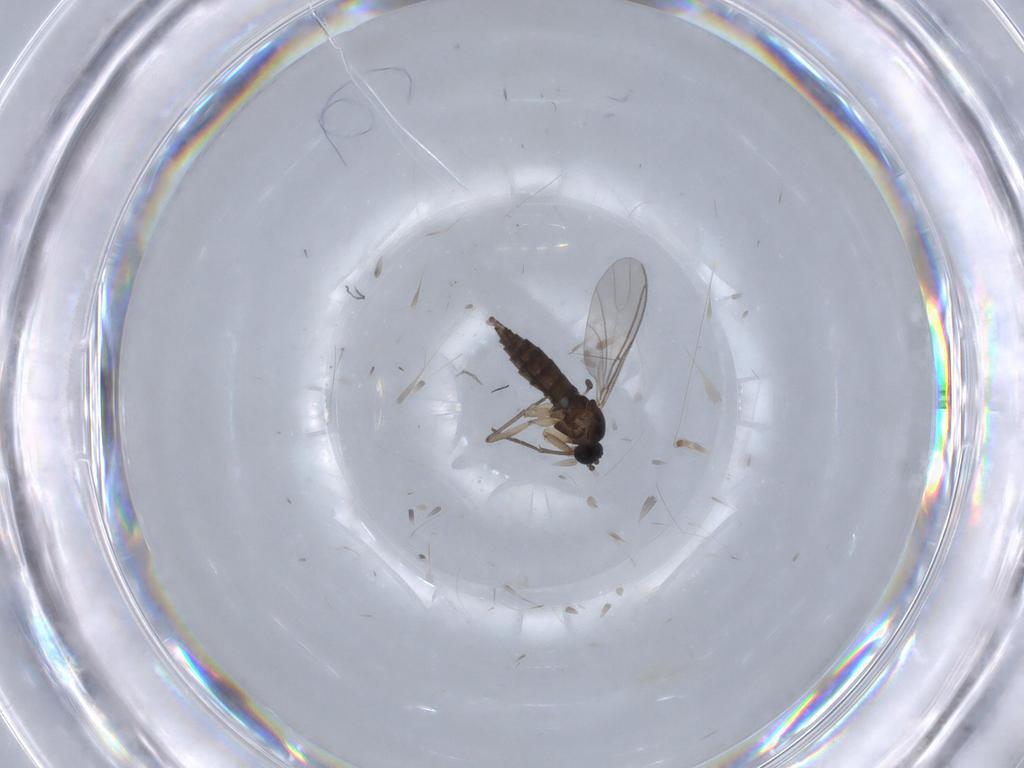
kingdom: Animalia
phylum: Arthropoda
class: Insecta
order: Diptera
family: Sciaridae
